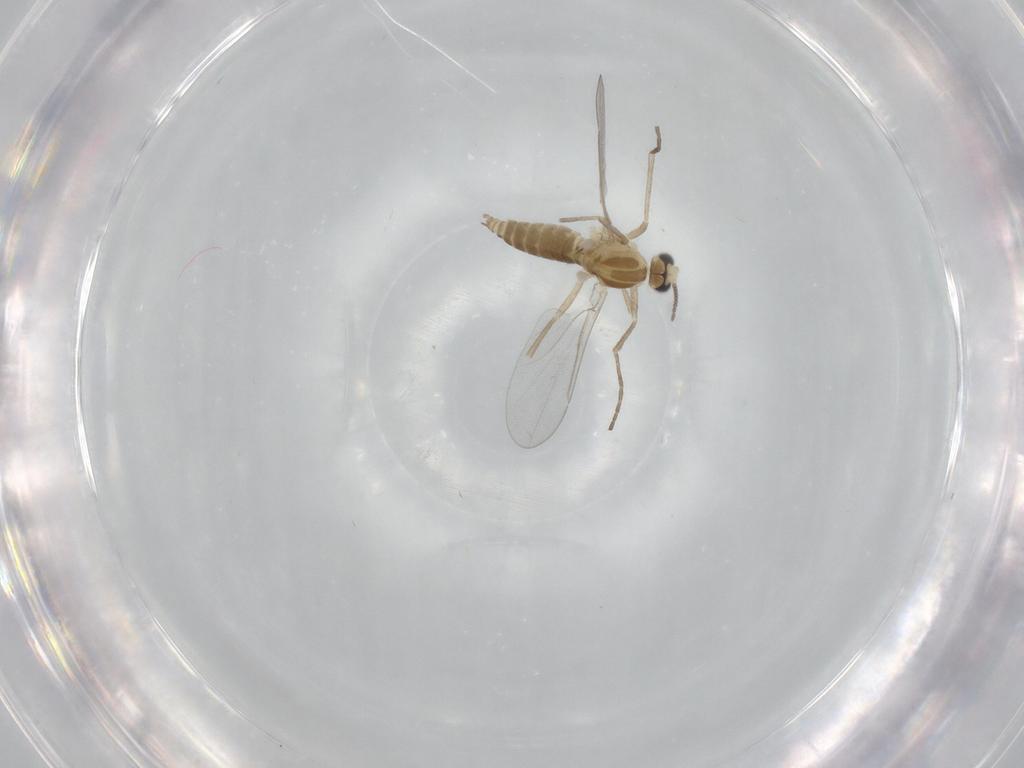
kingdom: Animalia
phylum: Arthropoda
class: Insecta
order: Diptera
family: Cecidomyiidae
